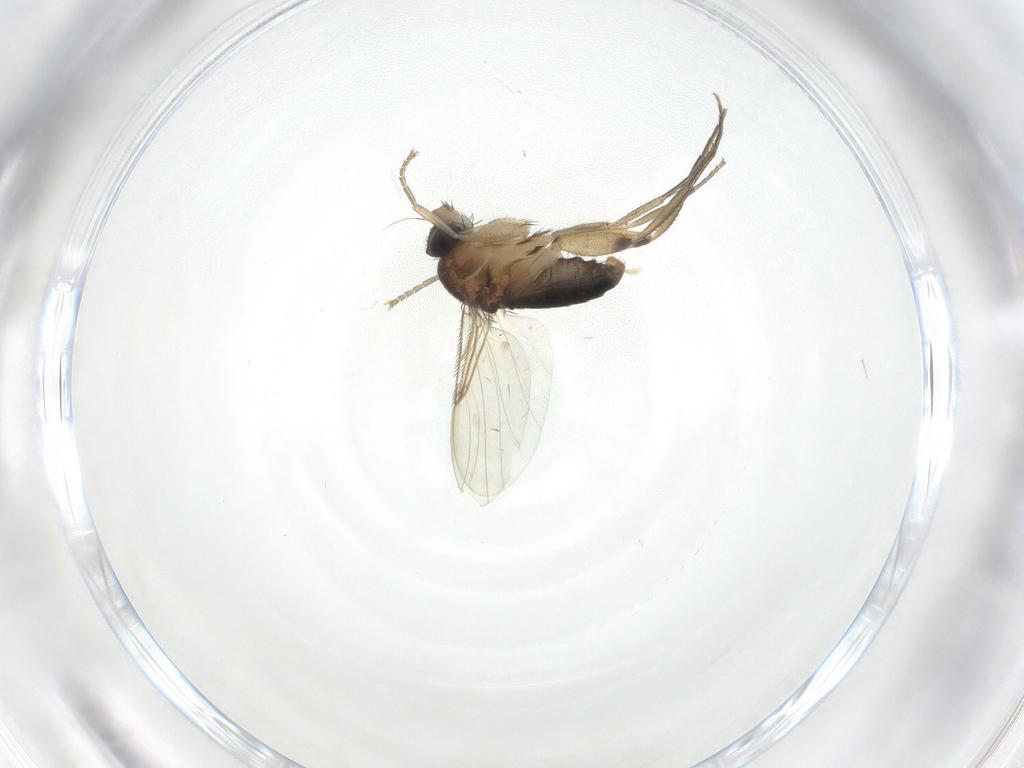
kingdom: Animalia
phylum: Arthropoda
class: Insecta
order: Diptera
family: Phoridae
